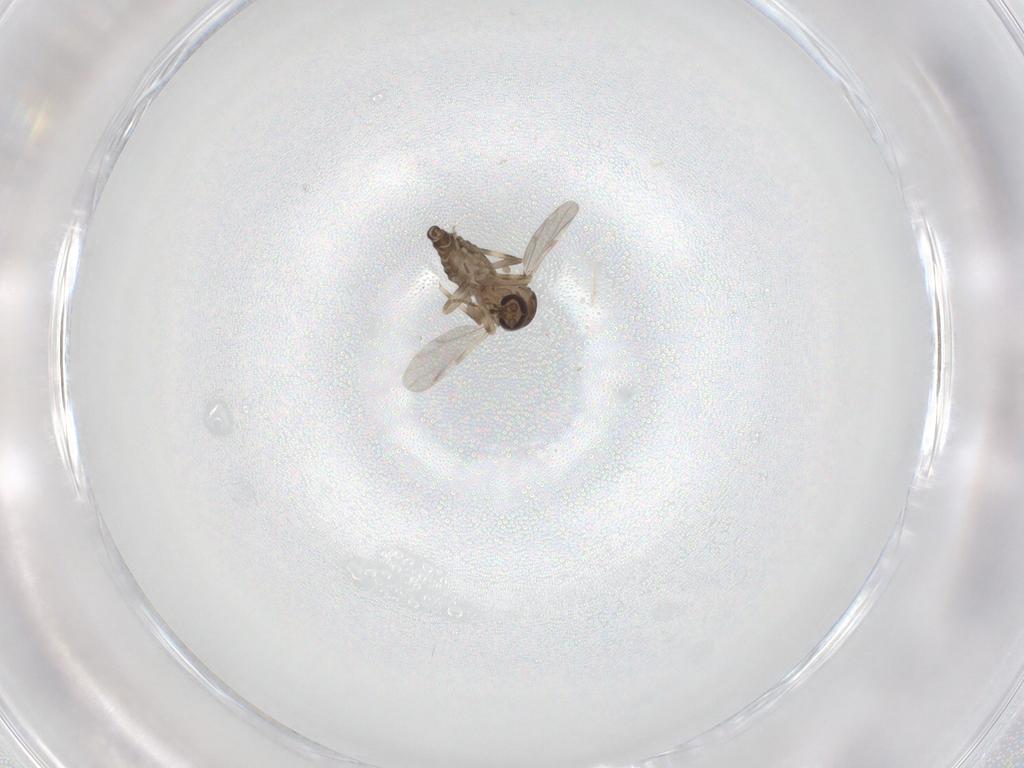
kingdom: Animalia
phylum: Arthropoda
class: Insecta
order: Diptera
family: Ceratopogonidae
